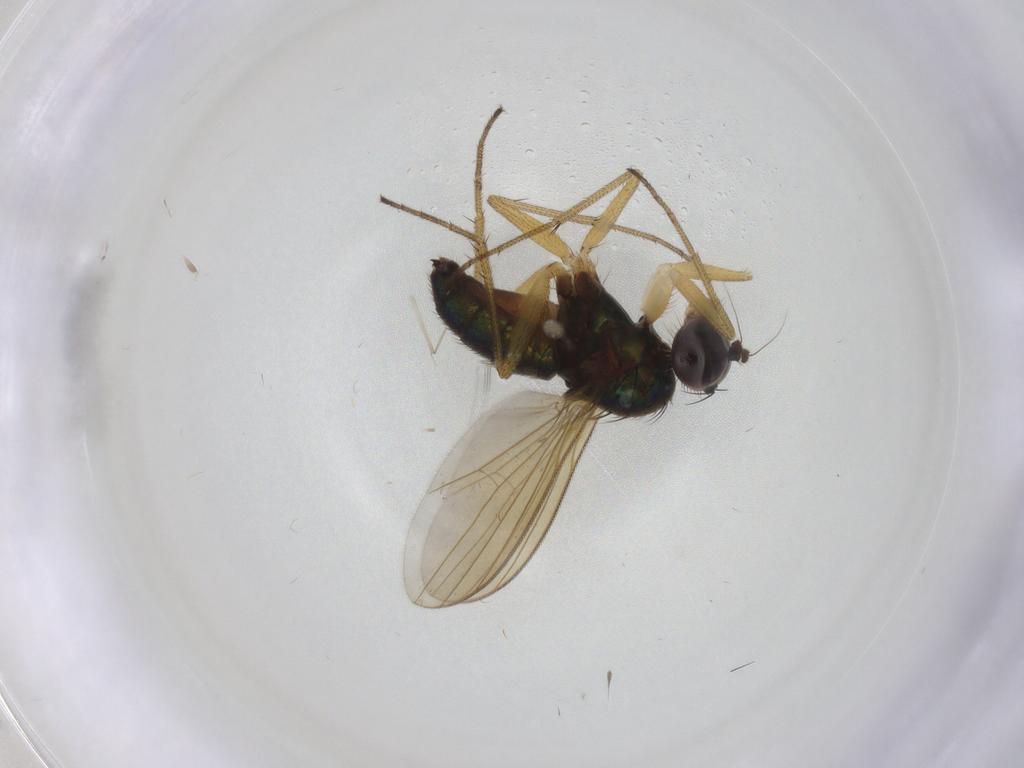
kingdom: Animalia
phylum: Arthropoda
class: Insecta
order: Diptera
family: Dolichopodidae
